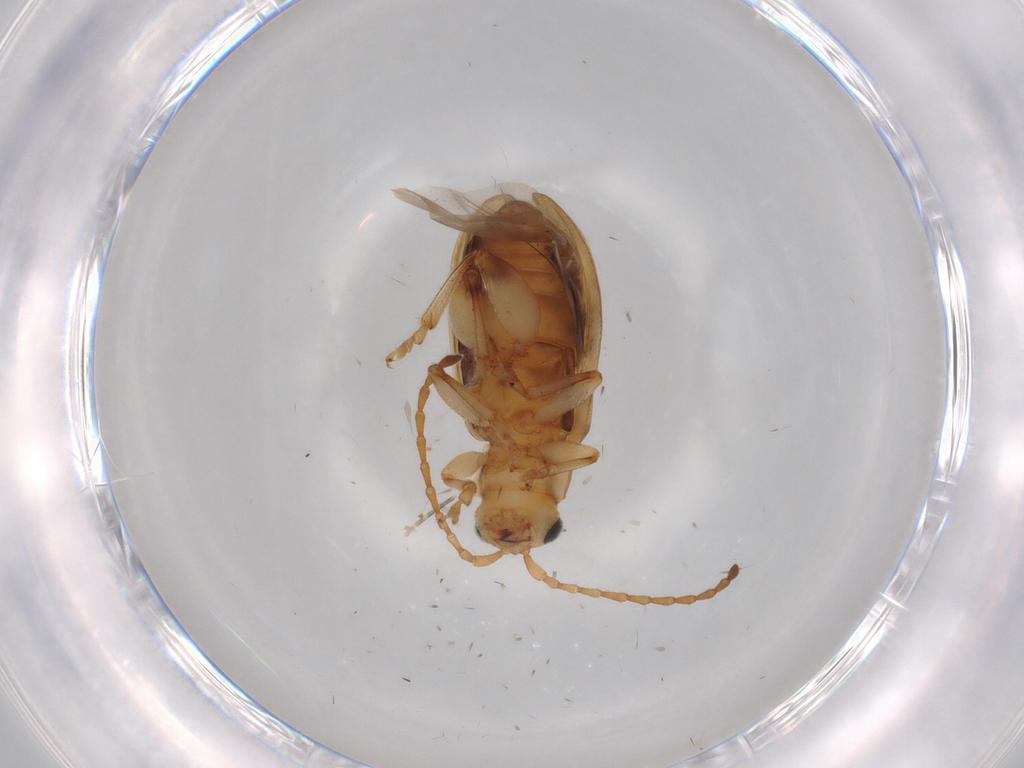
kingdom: Animalia
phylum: Arthropoda
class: Insecta
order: Coleoptera
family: Chrysomelidae
